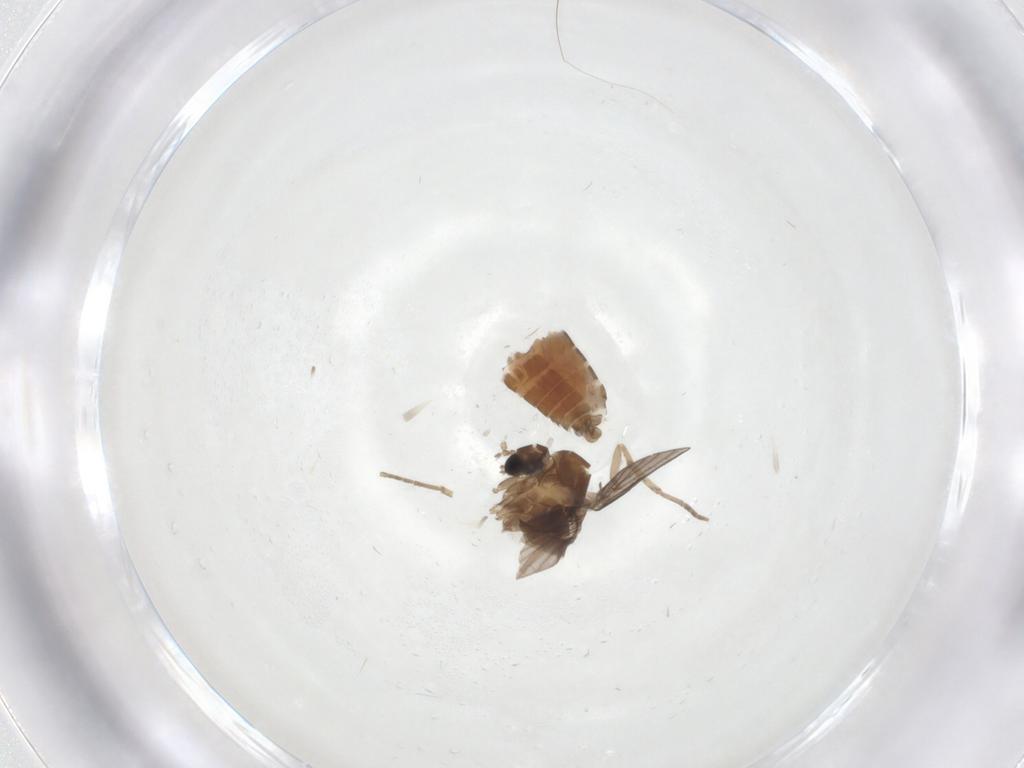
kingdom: Animalia
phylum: Arthropoda
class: Insecta
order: Diptera
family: Psychodidae
